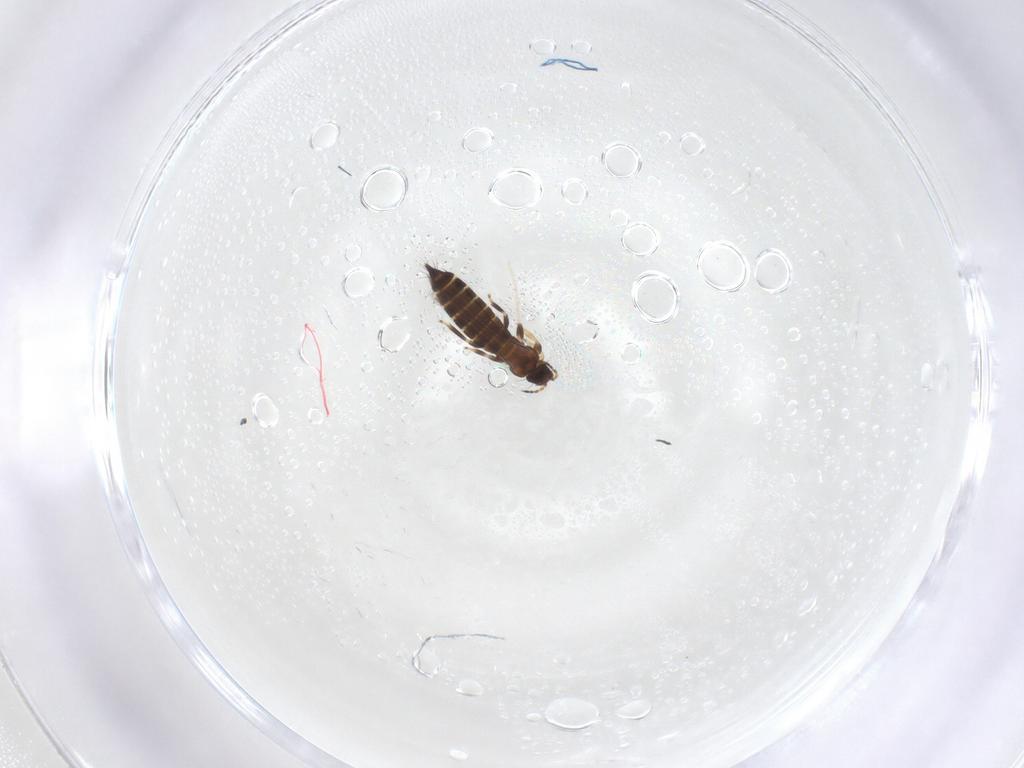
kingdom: Animalia
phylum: Arthropoda
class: Insecta
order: Thysanoptera
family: Thripidae
